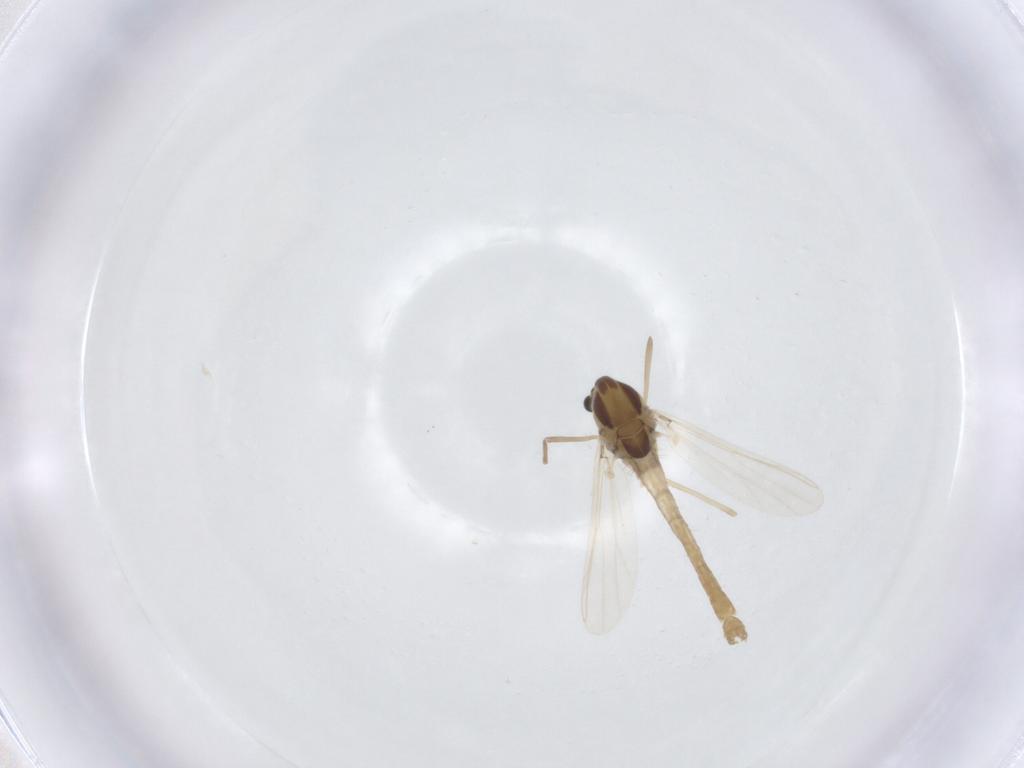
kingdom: Animalia
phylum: Arthropoda
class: Insecta
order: Diptera
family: Chironomidae
